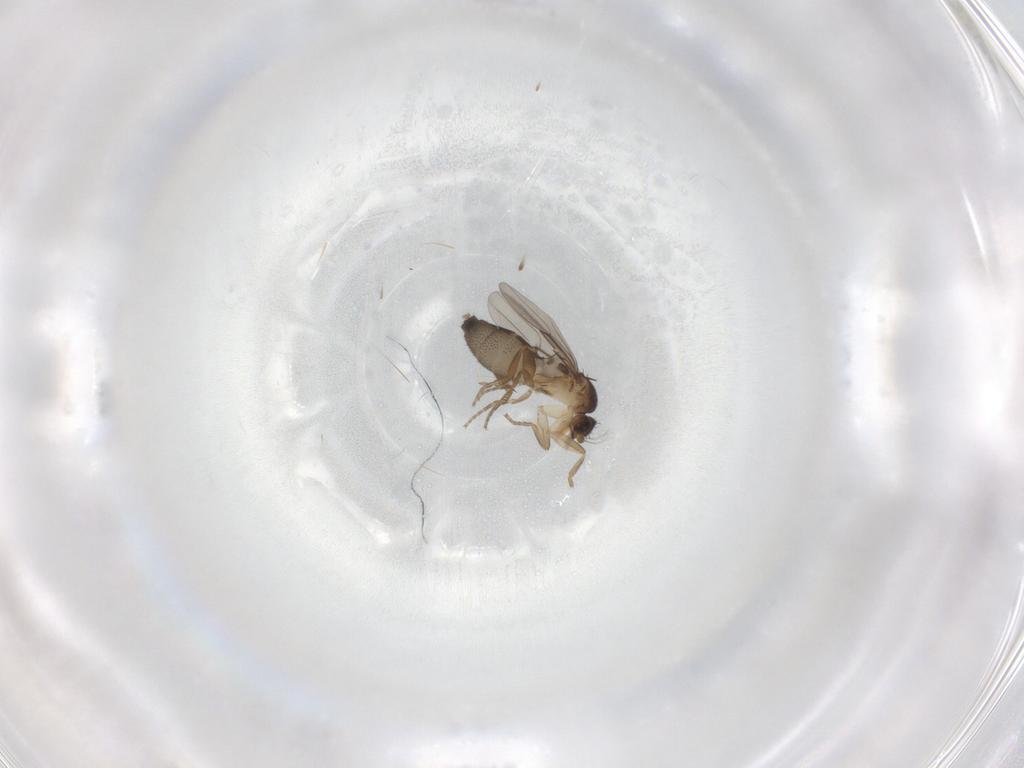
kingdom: Animalia
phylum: Arthropoda
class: Insecta
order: Diptera
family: Phoridae
